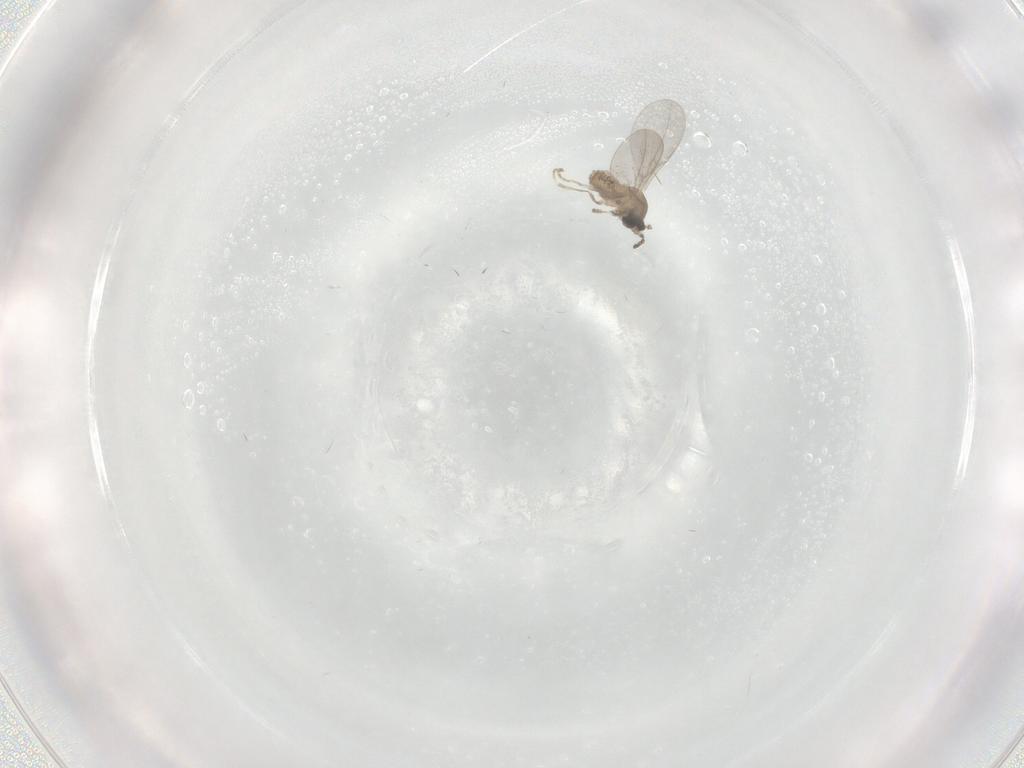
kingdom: Animalia
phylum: Arthropoda
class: Insecta
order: Diptera
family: Cecidomyiidae
